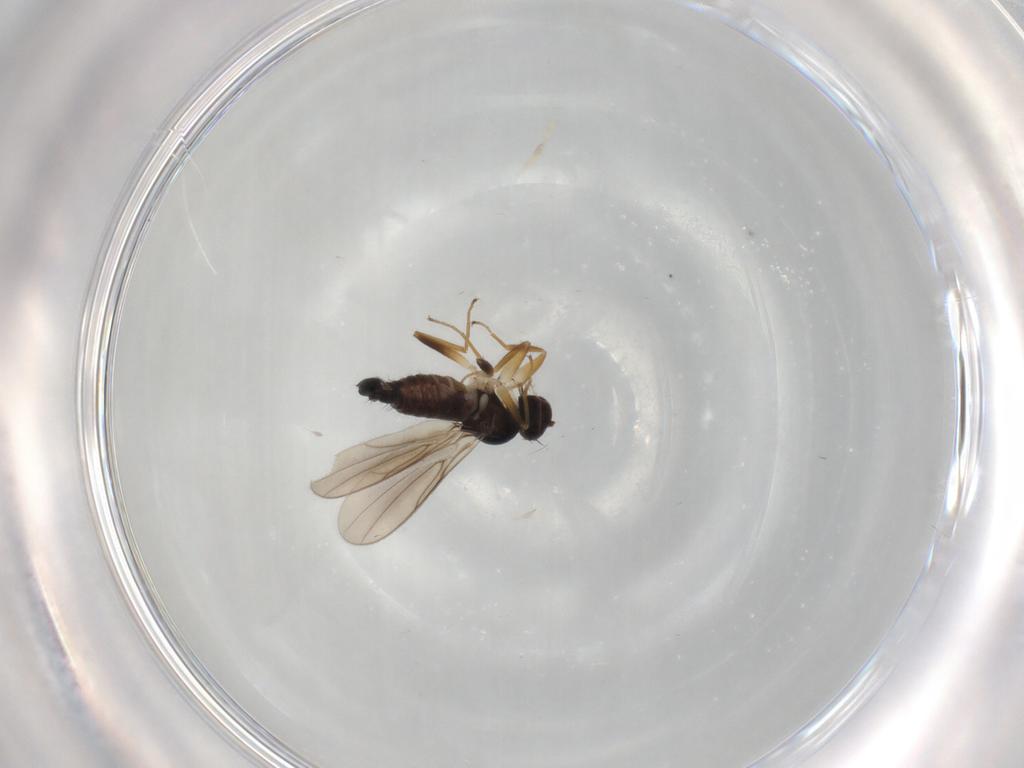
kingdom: Animalia
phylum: Arthropoda
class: Insecta
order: Diptera
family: Hybotidae
